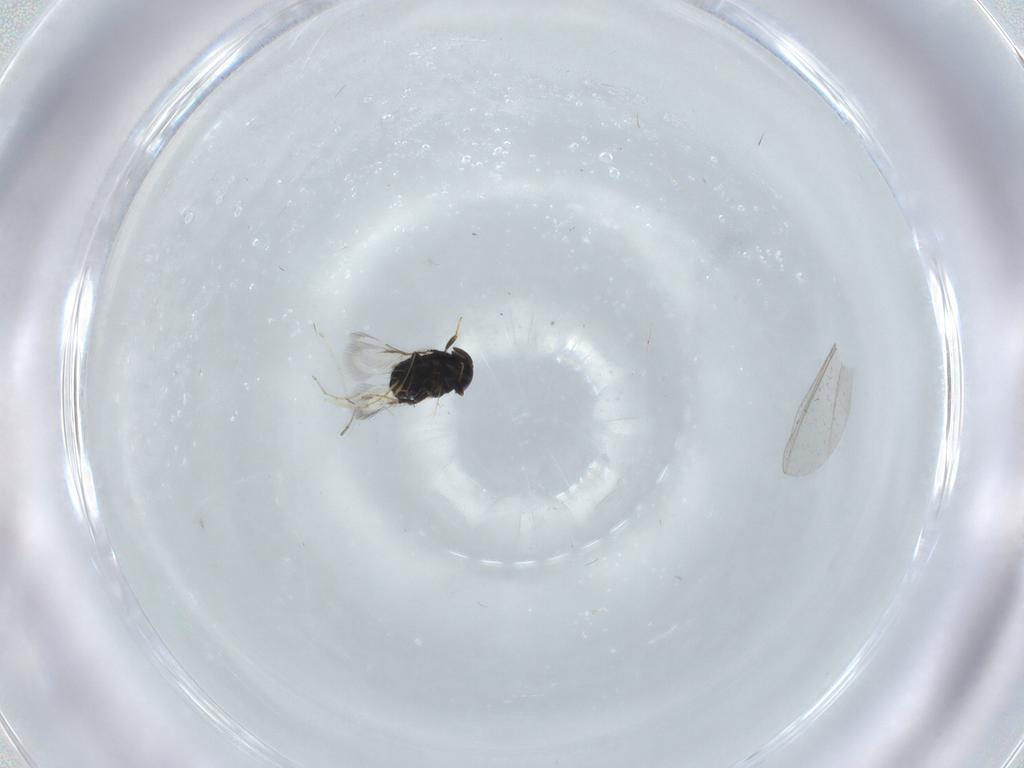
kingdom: Animalia
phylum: Arthropoda
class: Insecta
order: Hymenoptera
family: Signiphoridae
